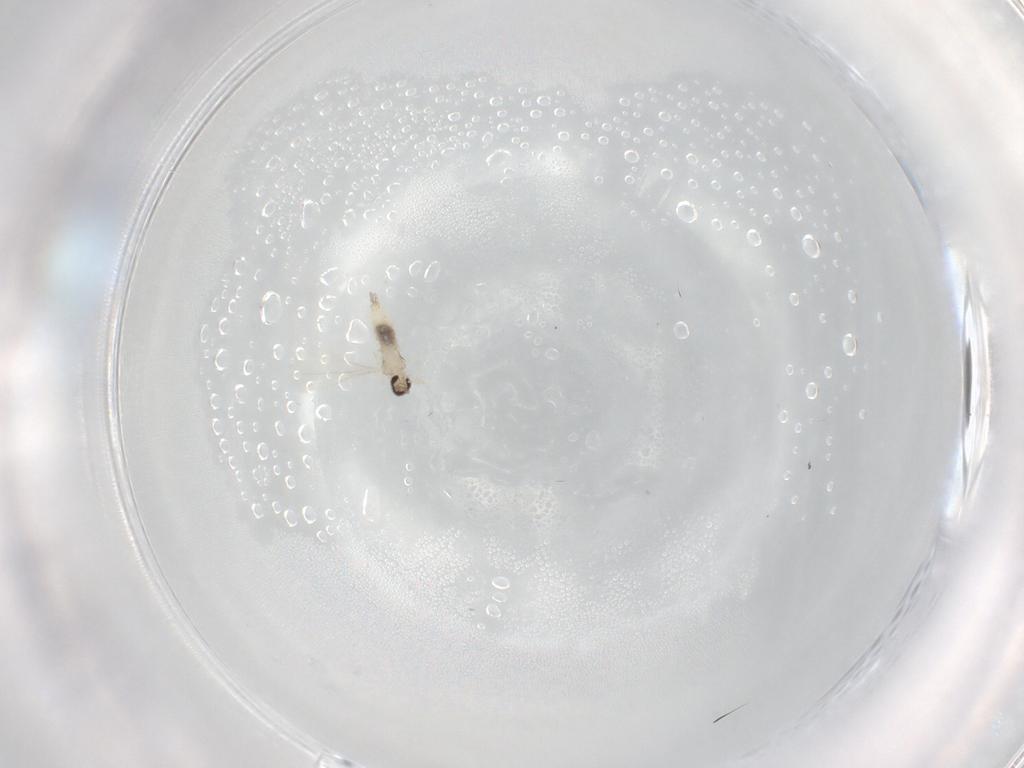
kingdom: Animalia
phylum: Arthropoda
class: Insecta
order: Diptera
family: Cecidomyiidae
